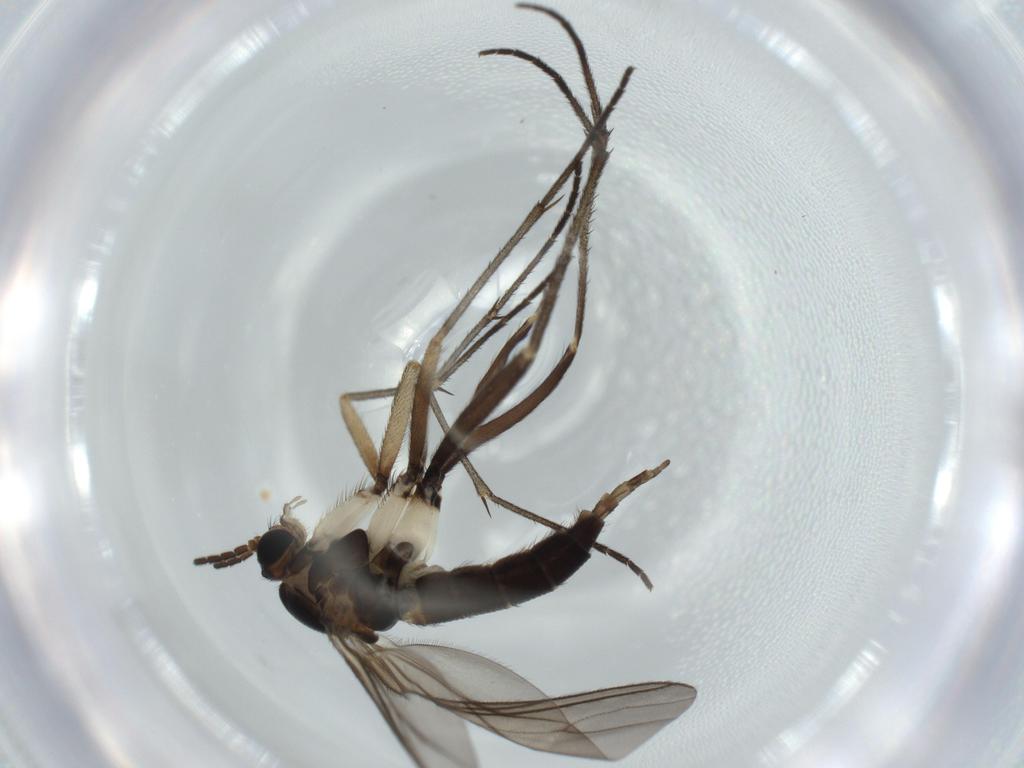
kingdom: Animalia
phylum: Arthropoda
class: Insecta
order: Diptera
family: Sciaridae
